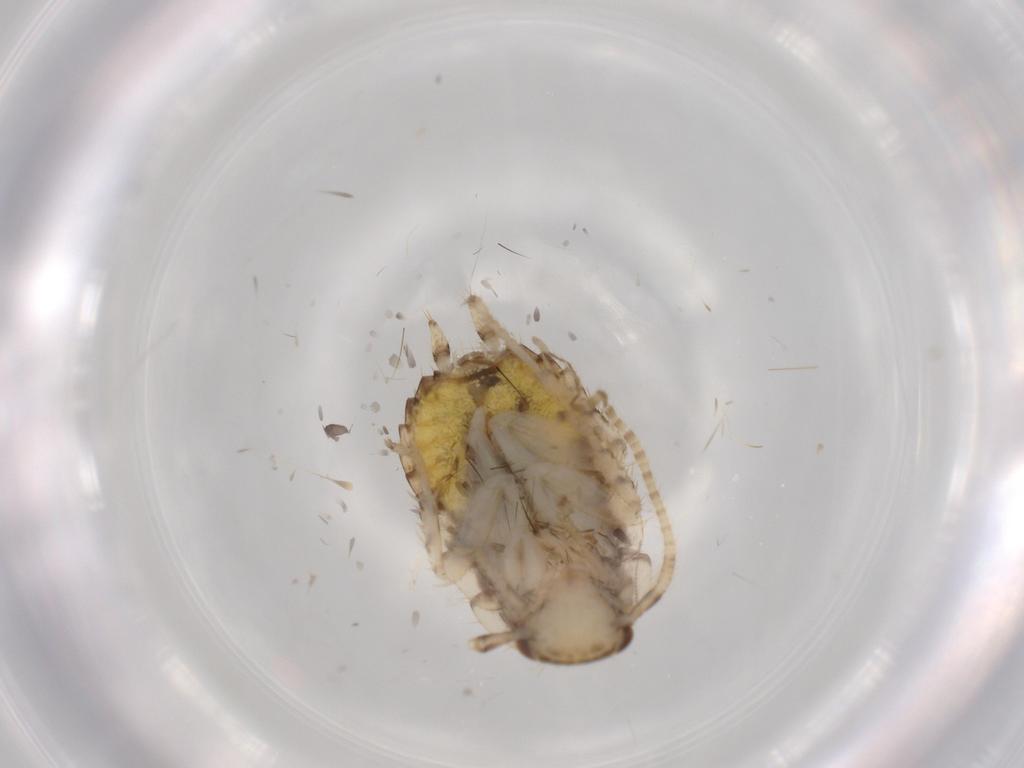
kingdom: Animalia
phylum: Arthropoda
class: Insecta
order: Blattodea
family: Ectobiidae
